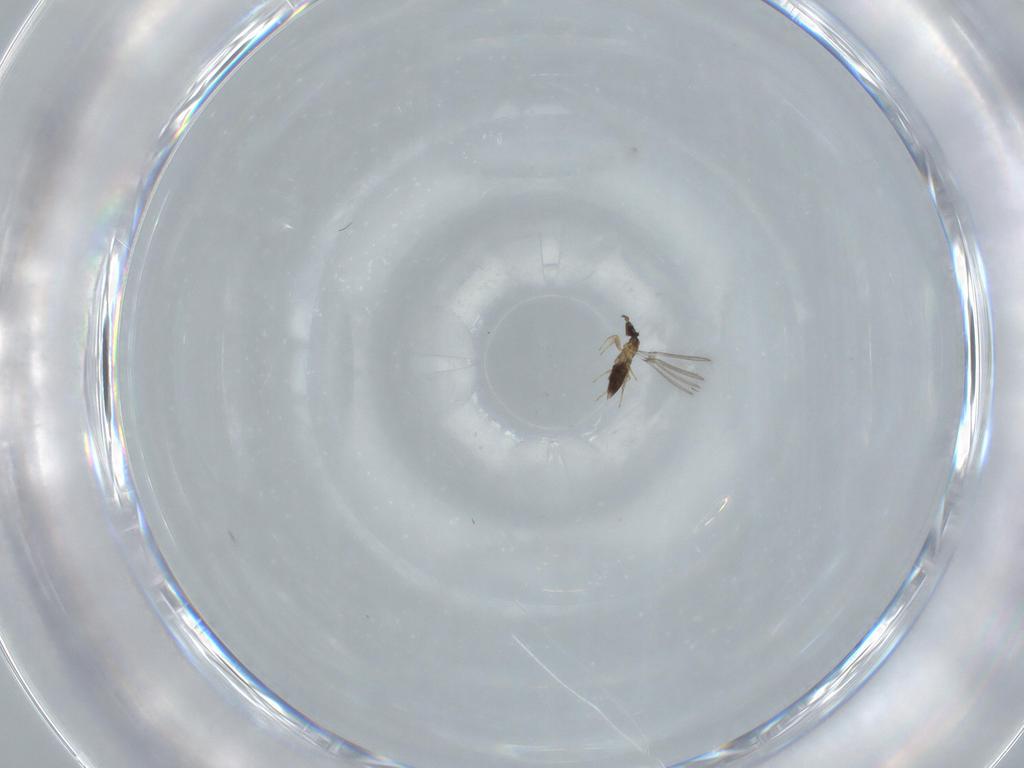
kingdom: Animalia
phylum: Arthropoda
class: Insecta
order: Hymenoptera
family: Mymaridae
